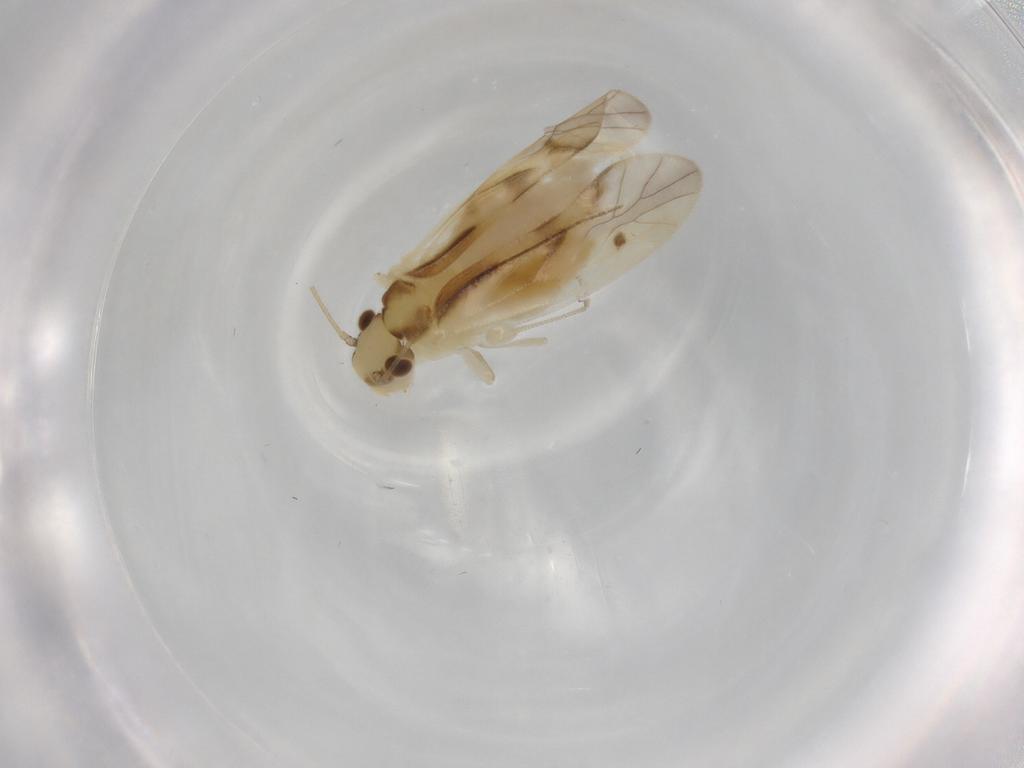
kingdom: Animalia
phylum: Arthropoda
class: Insecta
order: Psocodea
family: Caeciliusidae
